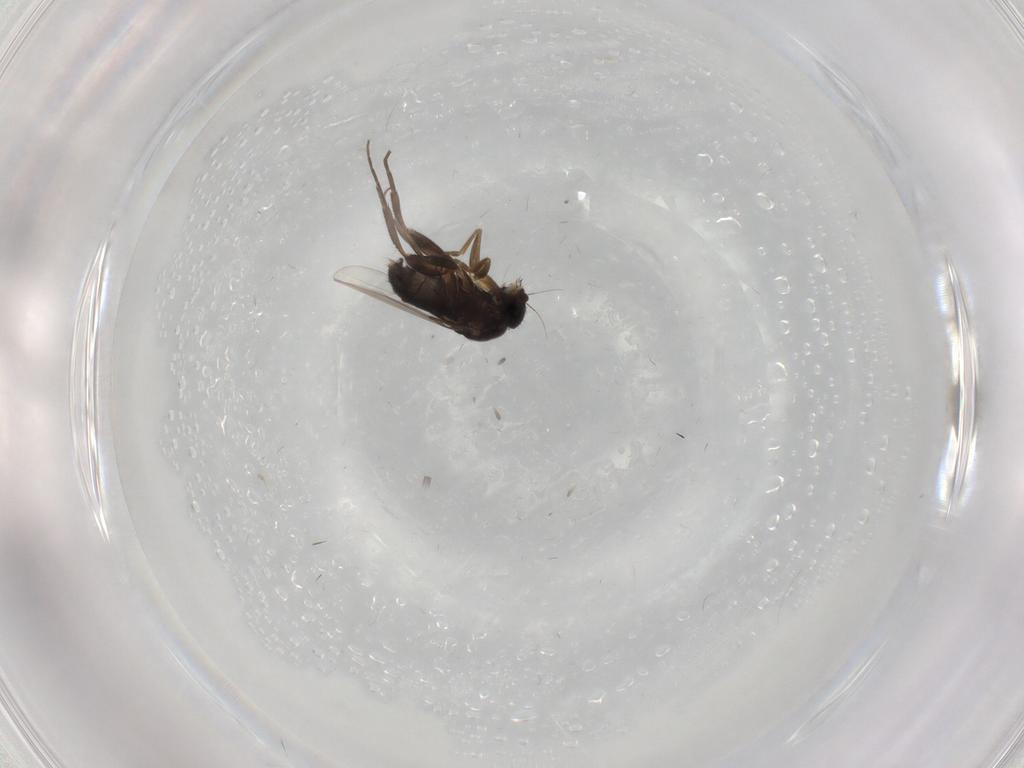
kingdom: Animalia
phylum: Arthropoda
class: Insecta
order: Diptera
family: Phoridae
